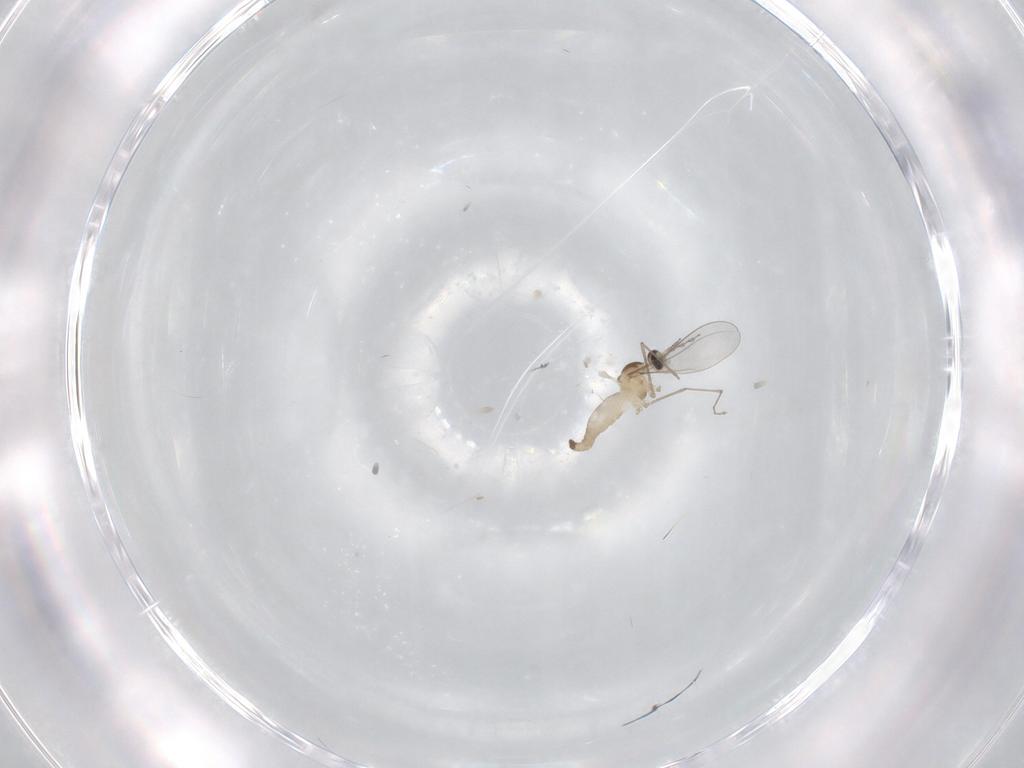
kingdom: Animalia
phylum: Arthropoda
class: Insecta
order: Diptera
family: Cecidomyiidae
